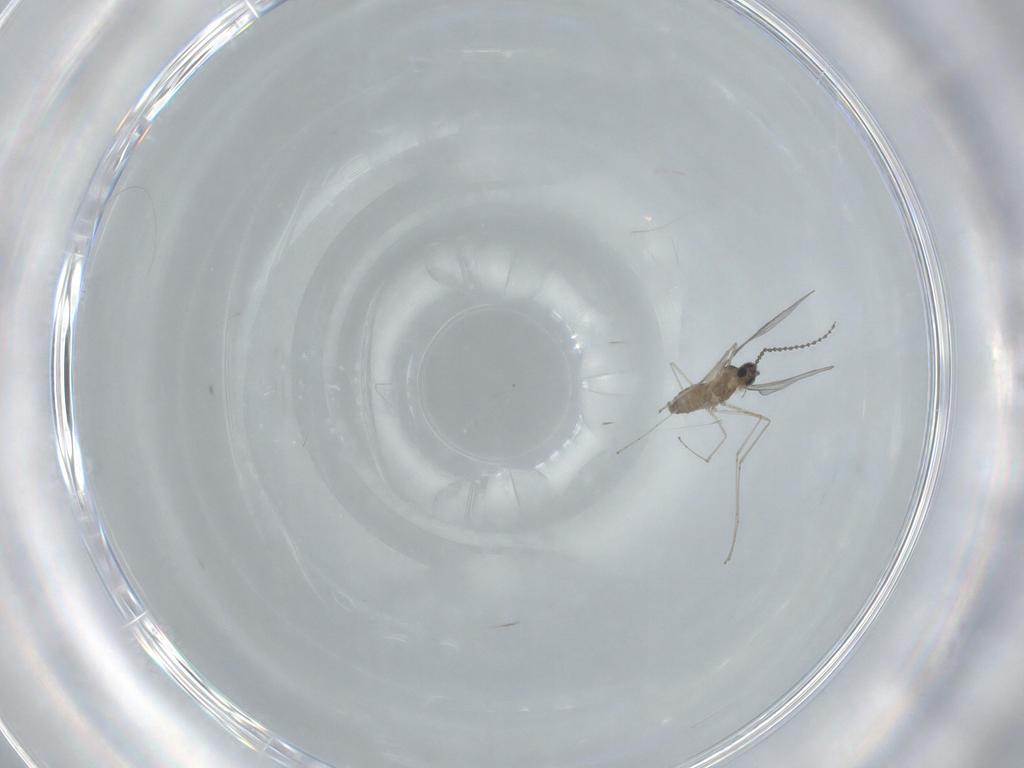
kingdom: Animalia
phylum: Arthropoda
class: Insecta
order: Diptera
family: Cecidomyiidae
